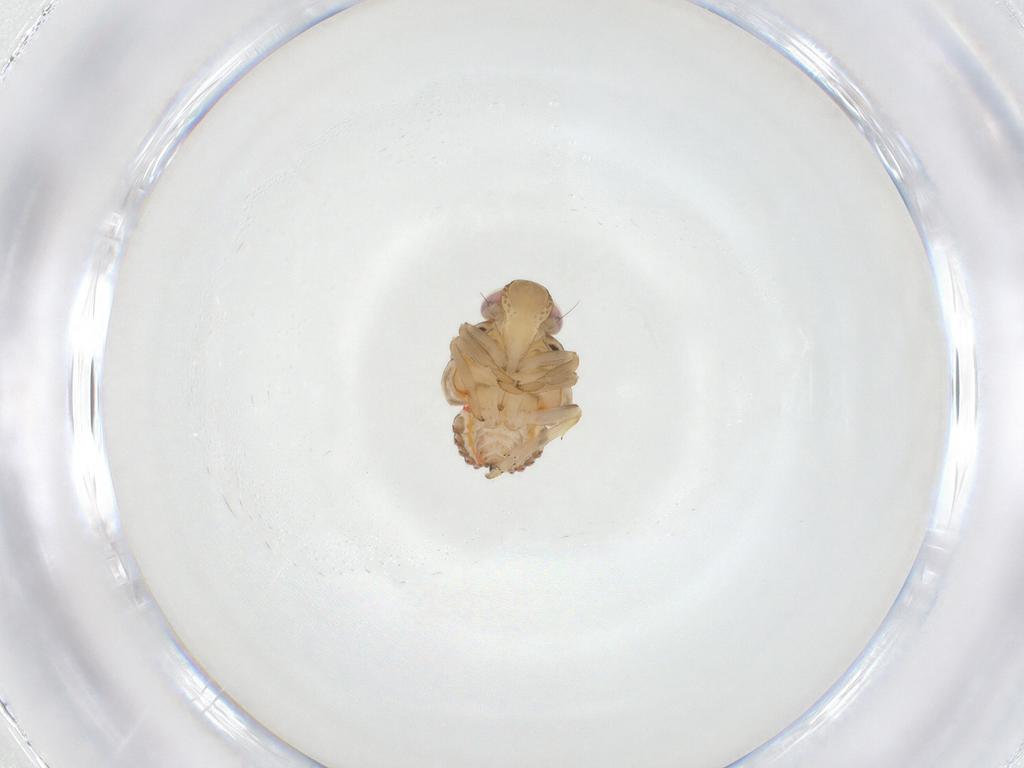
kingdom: Animalia
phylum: Arthropoda
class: Insecta
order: Hemiptera
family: Issidae
